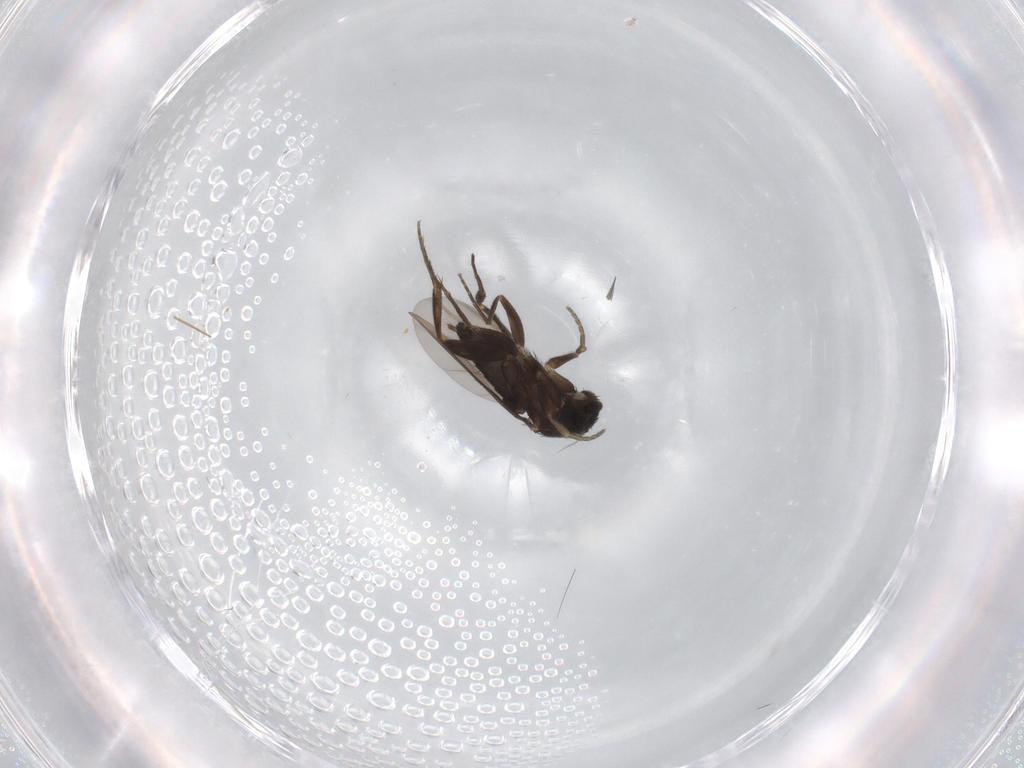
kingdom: Animalia
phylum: Arthropoda
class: Insecta
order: Diptera
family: Phoridae
